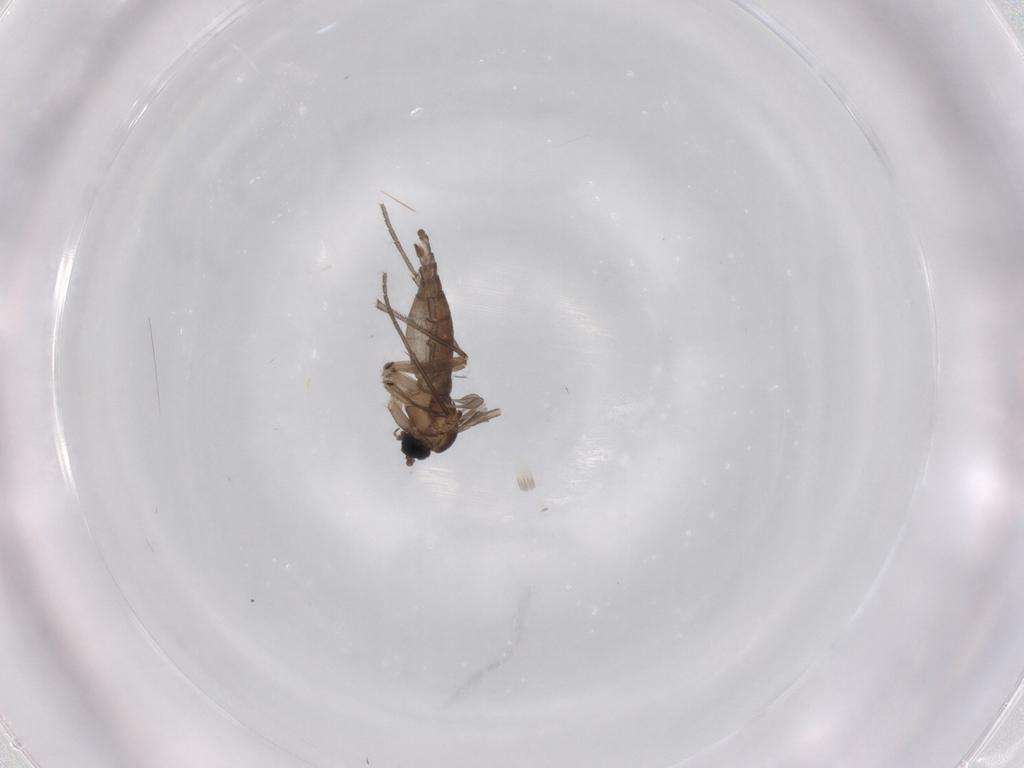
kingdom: Animalia
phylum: Arthropoda
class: Insecta
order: Diptera
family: Sciaridae
